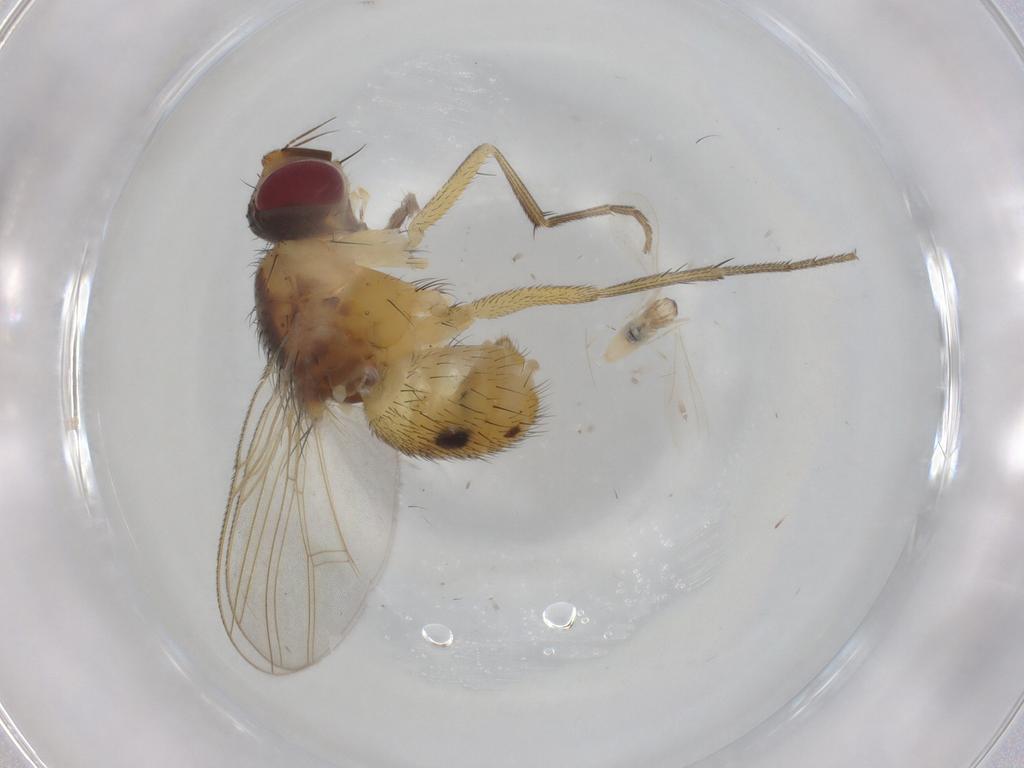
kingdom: Animalia
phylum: Arthropoda
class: Insecta
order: Diptera
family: Muscidae
